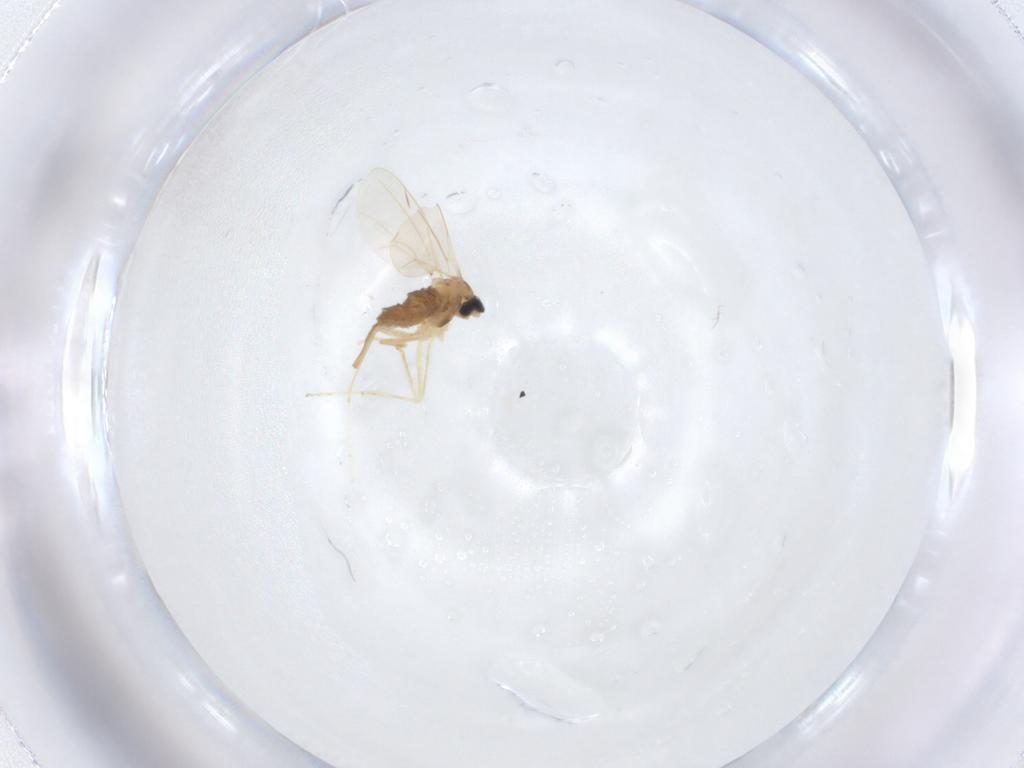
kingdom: Animalia
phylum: Arthropoda
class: Insecta
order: Diptera
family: Cecidomyiidae
